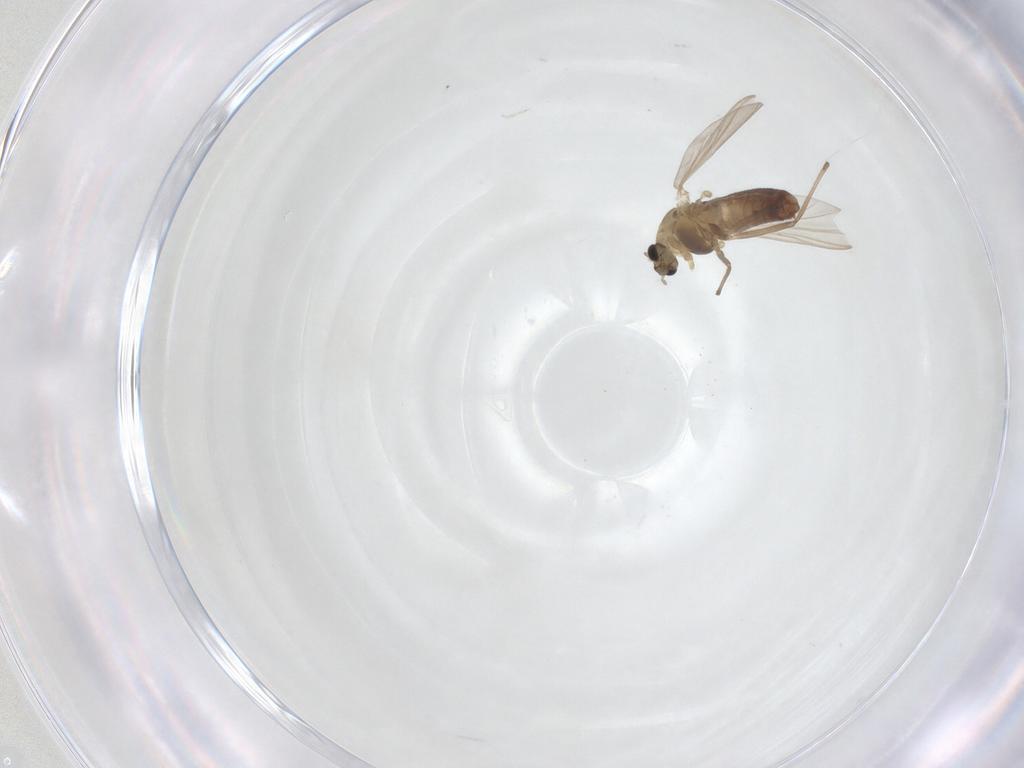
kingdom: Animalia
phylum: Arthropoda
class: Insecta
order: Diptera
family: Chironomidae
